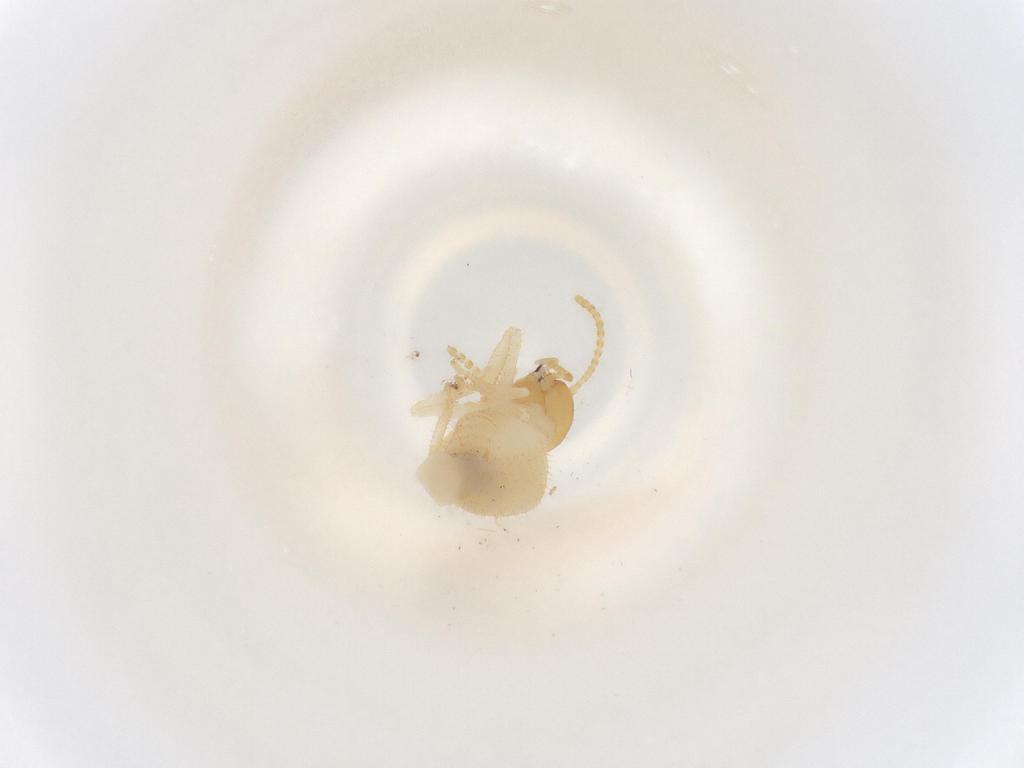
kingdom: Animalia
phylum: Arthropoda
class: Insecta
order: Blattodea
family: Termitidae
